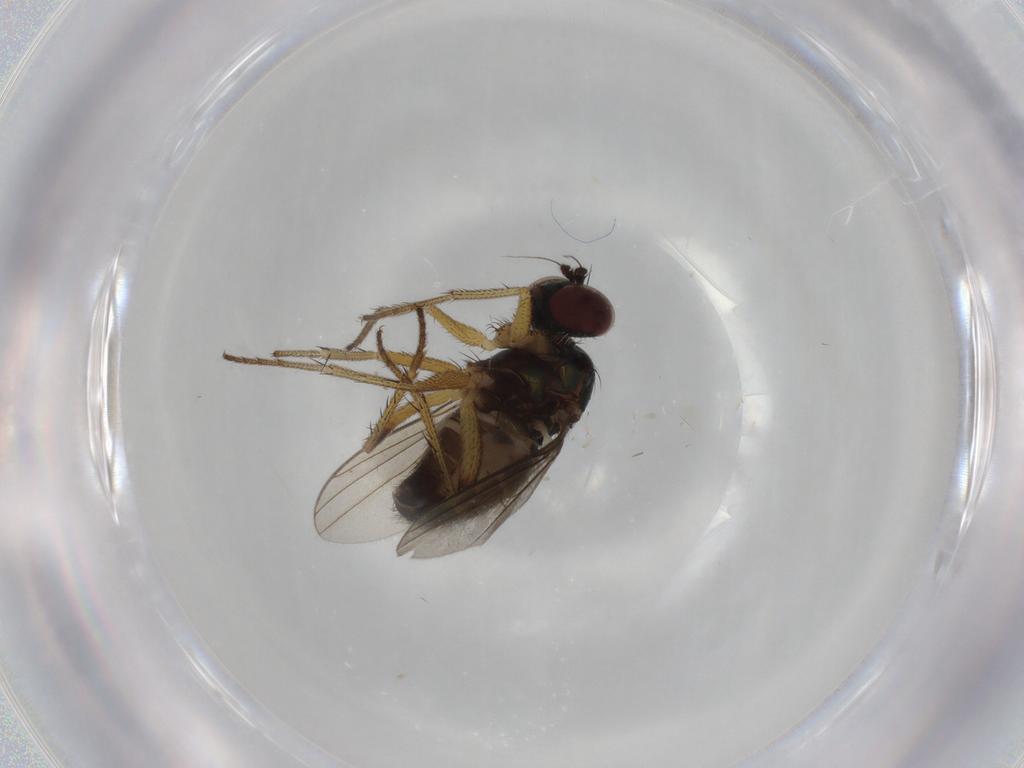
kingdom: Animalia
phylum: Arthropoda
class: Insecta
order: Diptera
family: Dolichopodidae
